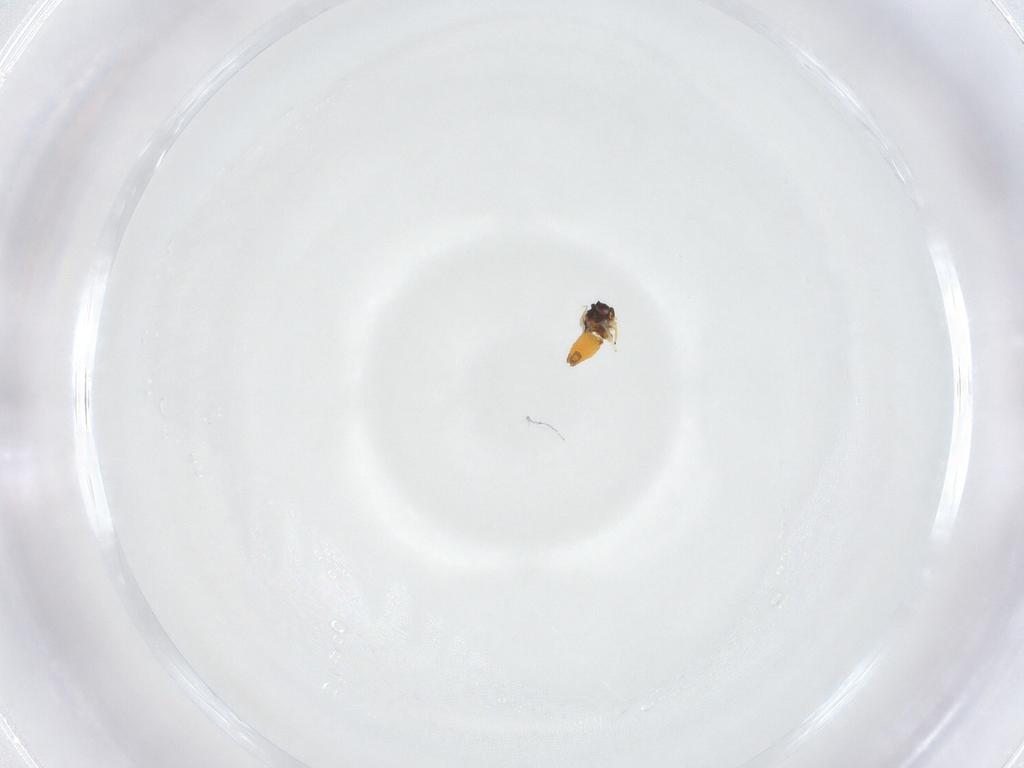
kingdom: Animalia
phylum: Arthropoda
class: Insecta
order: Hemiptera
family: Aleyrodidae
